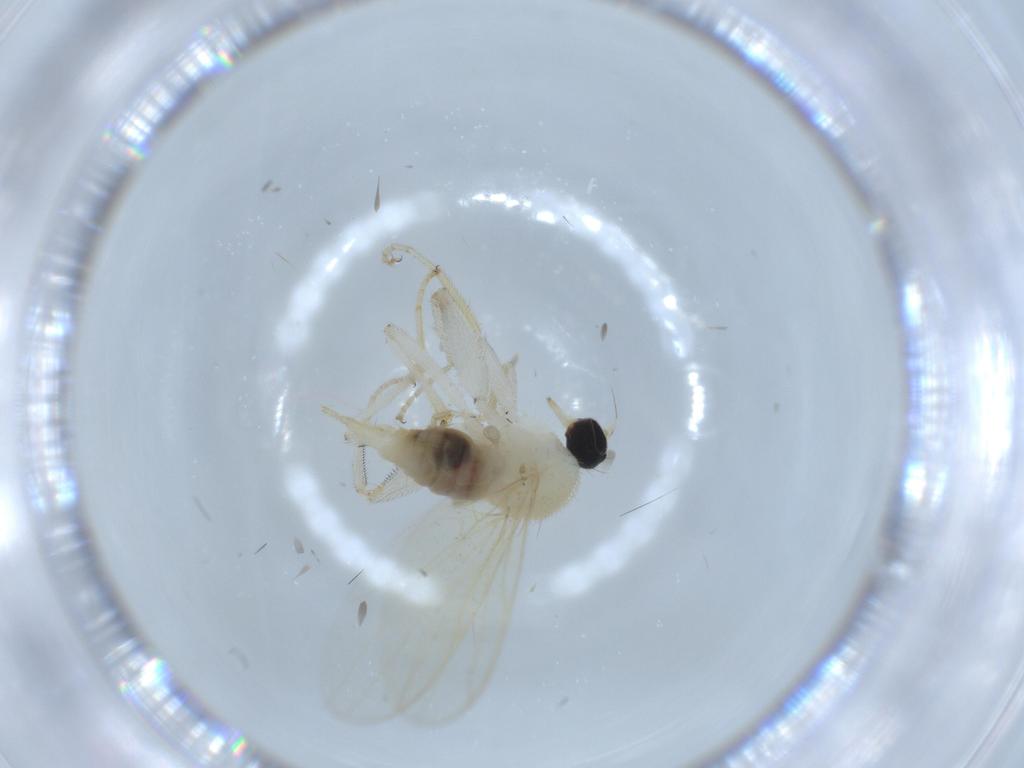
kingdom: Animalia
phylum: Arthropoda
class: Insecta
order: Diptera
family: Hybotidae
